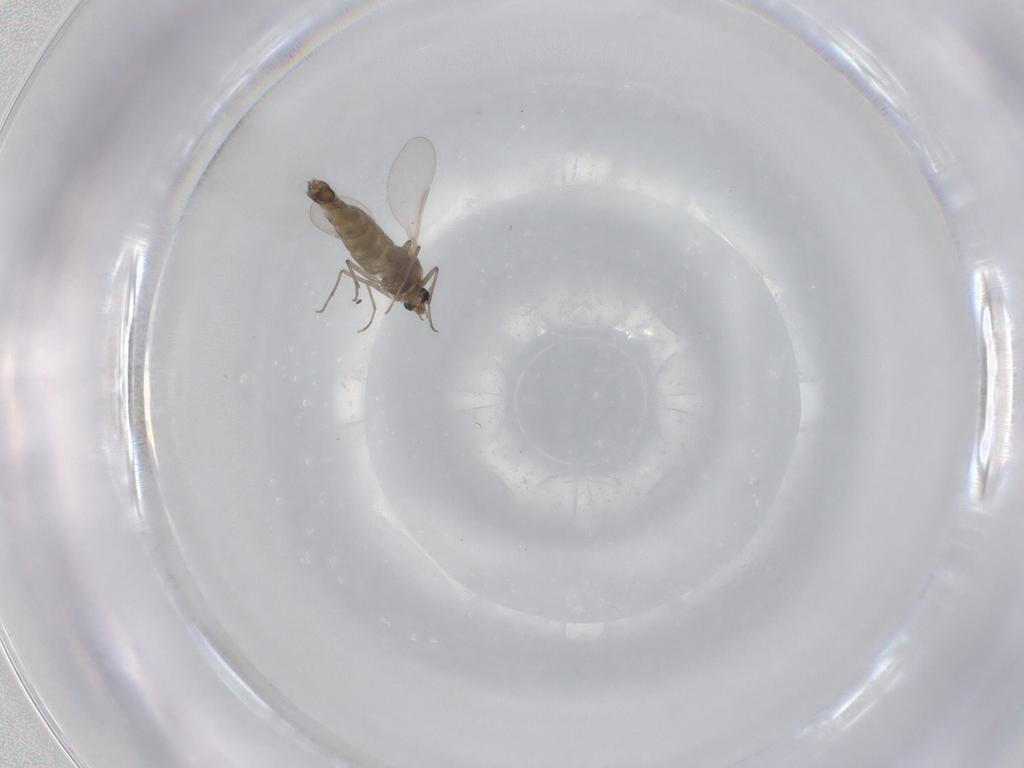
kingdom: Animalia
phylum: Arthropoda
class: Insecta
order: Diptera
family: Chironomidae
